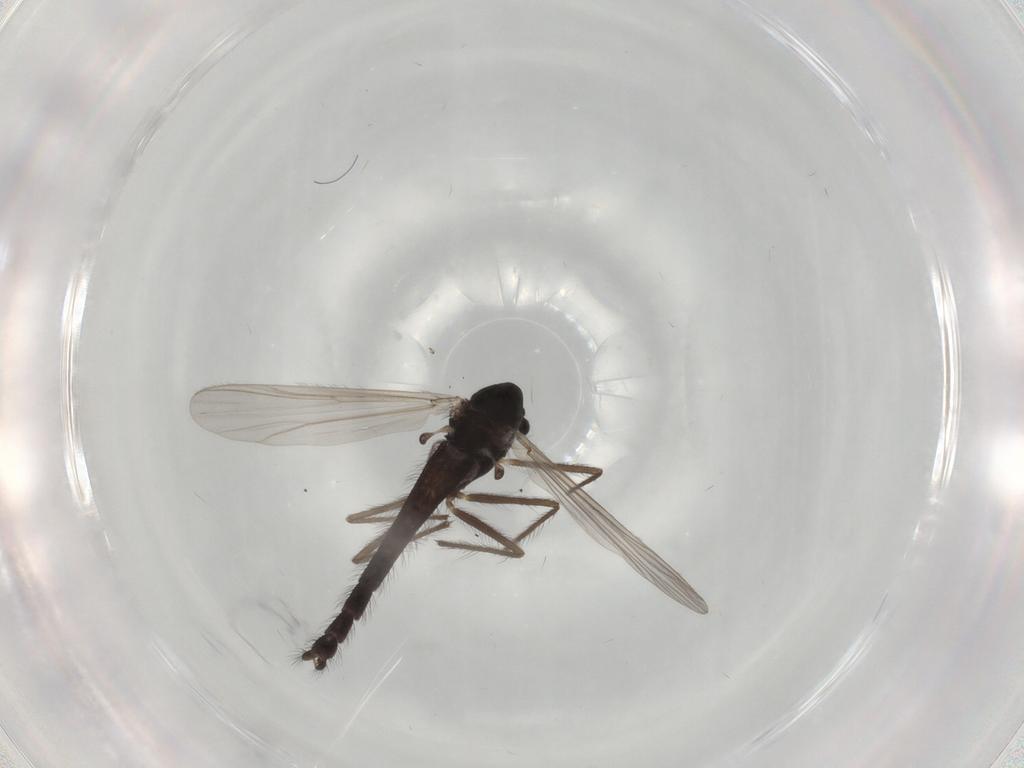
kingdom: Animalia
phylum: Arthropoda
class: Insecta
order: Diptera
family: Chironomidae
